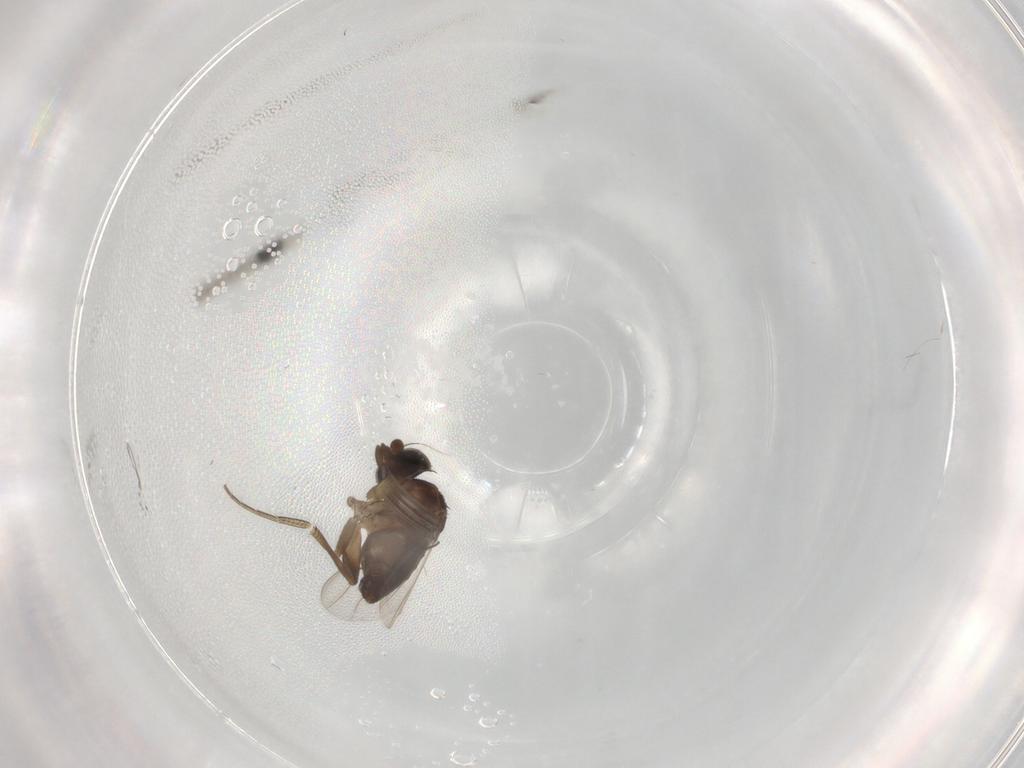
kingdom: Animalia
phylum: Arthropoda
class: Insecta
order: Diptera
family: Phoridae
